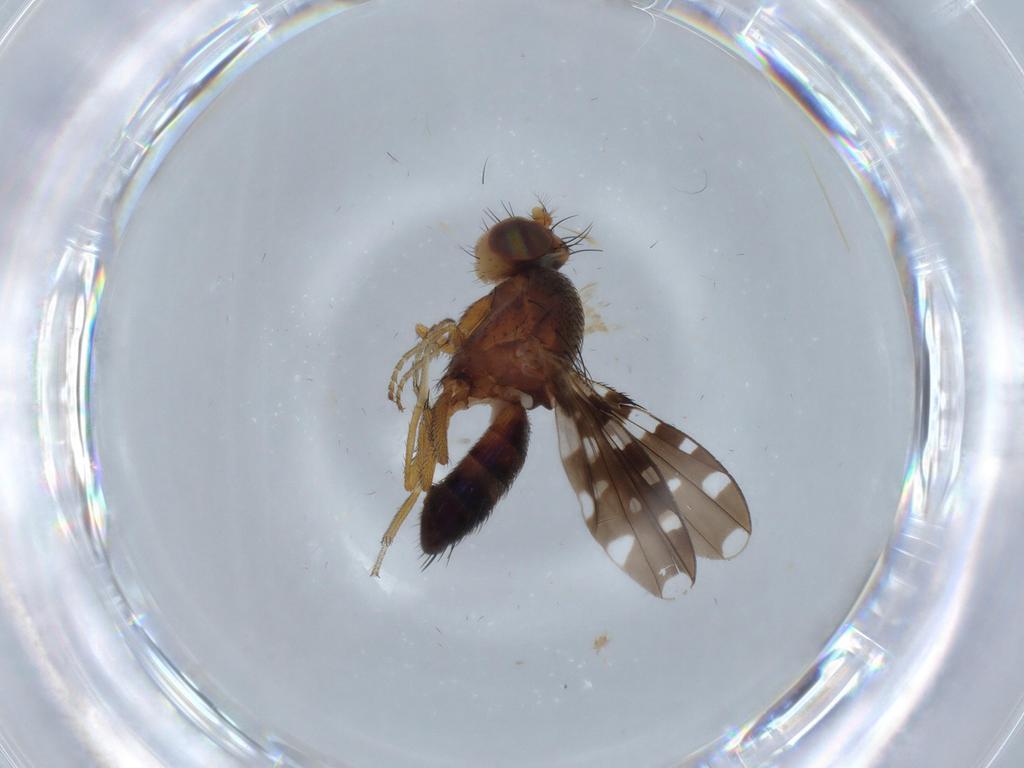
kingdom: Animalia
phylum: Arthropoda
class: Insecta
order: Diptera
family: Ephydridae
